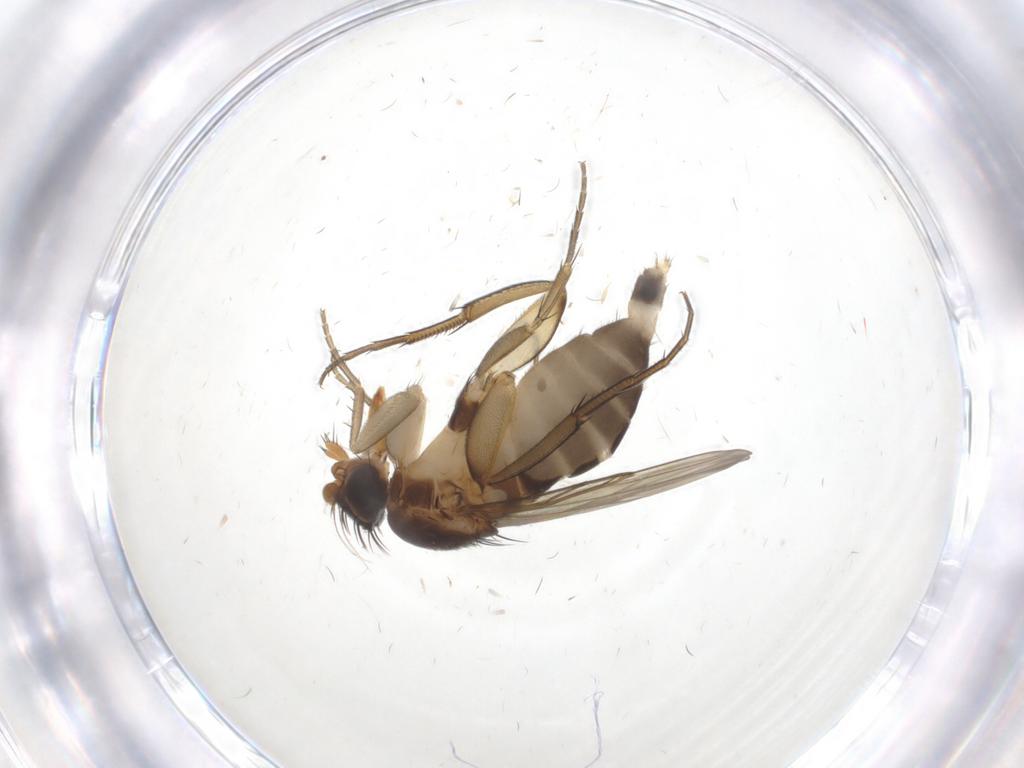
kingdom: Animalia
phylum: Arthropoda
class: Insecta
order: Diptera
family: Phoridae
